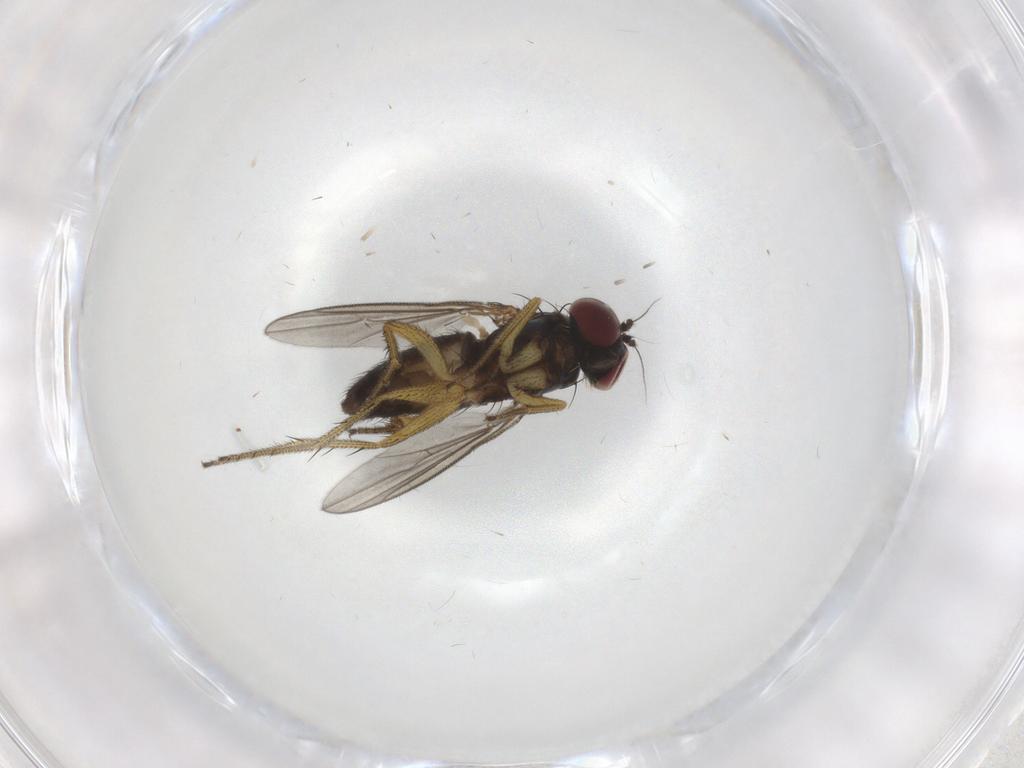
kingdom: Animalia
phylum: Arthropoda
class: Insecta
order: Diptera
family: Dolichopodidae
